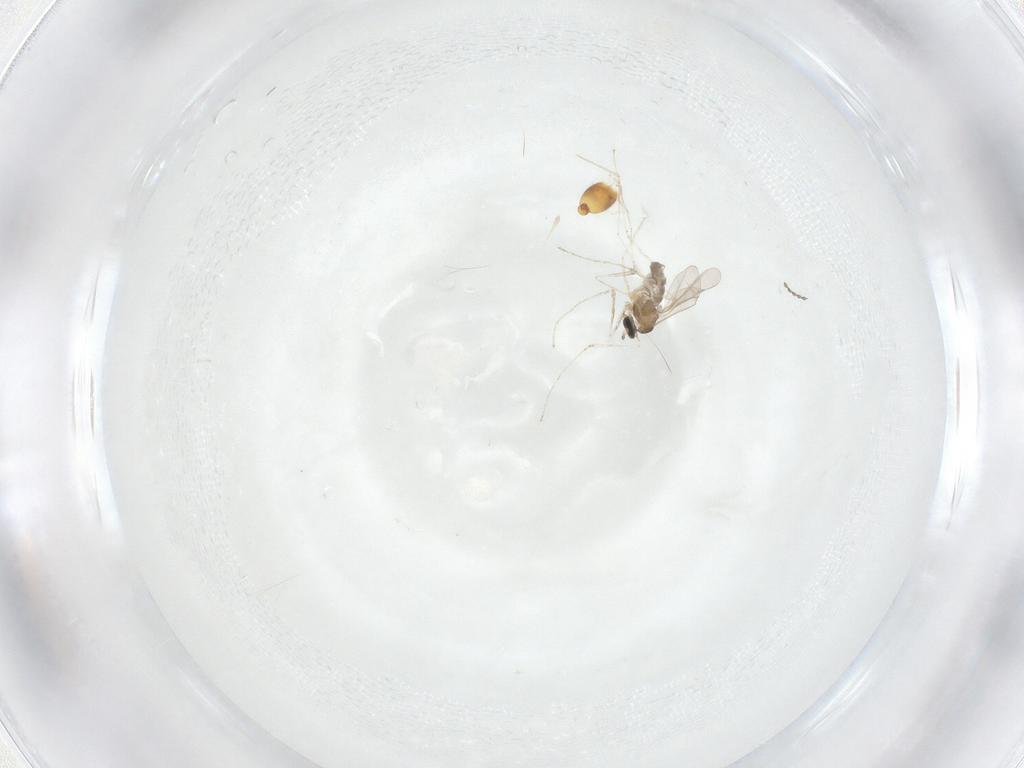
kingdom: Animalia
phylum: Arthropoda
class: Insecta
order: Diptera
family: Cecidomyiidae
